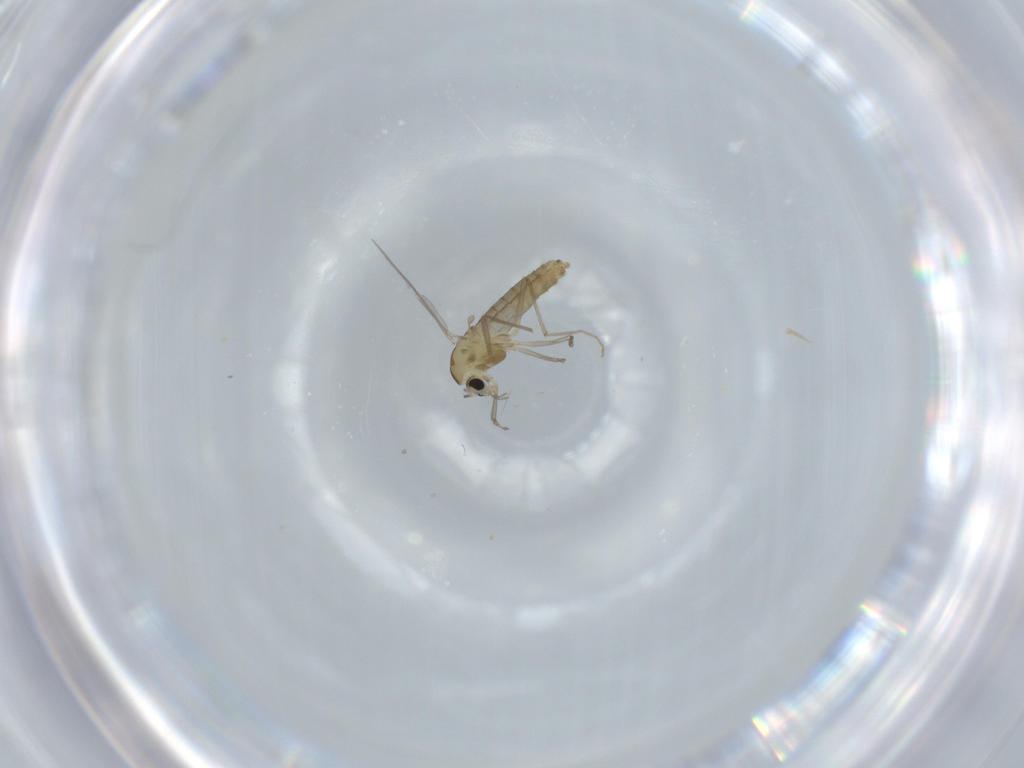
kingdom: Animalia
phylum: Arthropoda
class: Insecta
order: Diptera
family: Chironomidae
